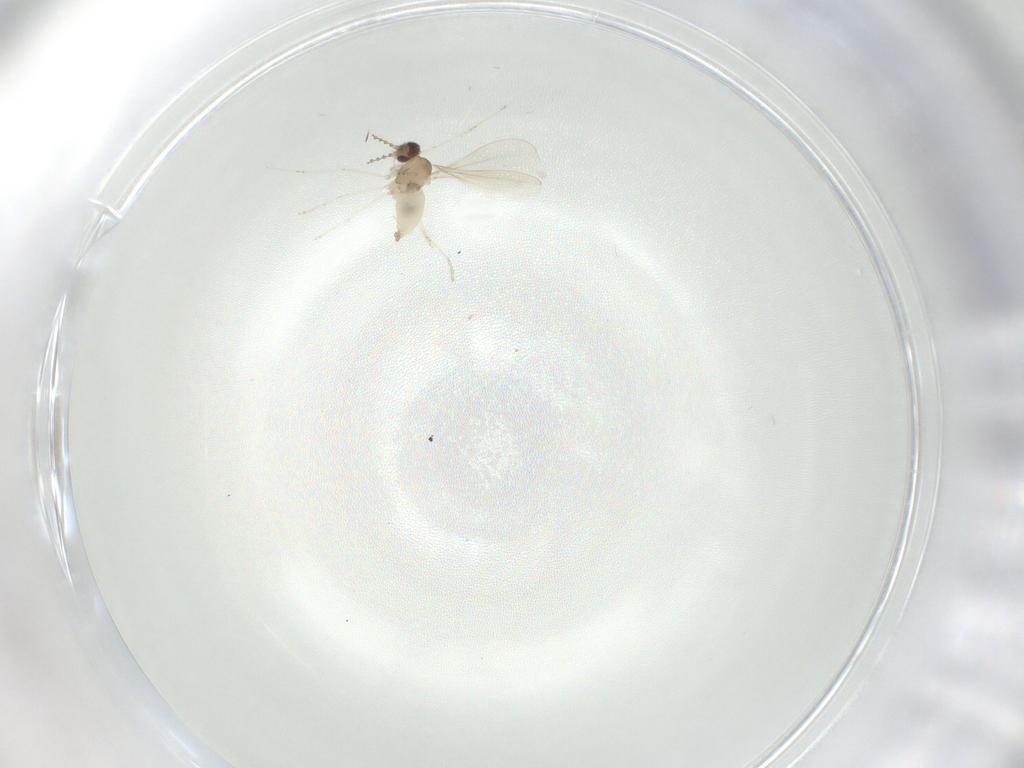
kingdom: Animalia
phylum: Arthropoda
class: Insecta
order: Diptera
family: Cecidomyiidae
